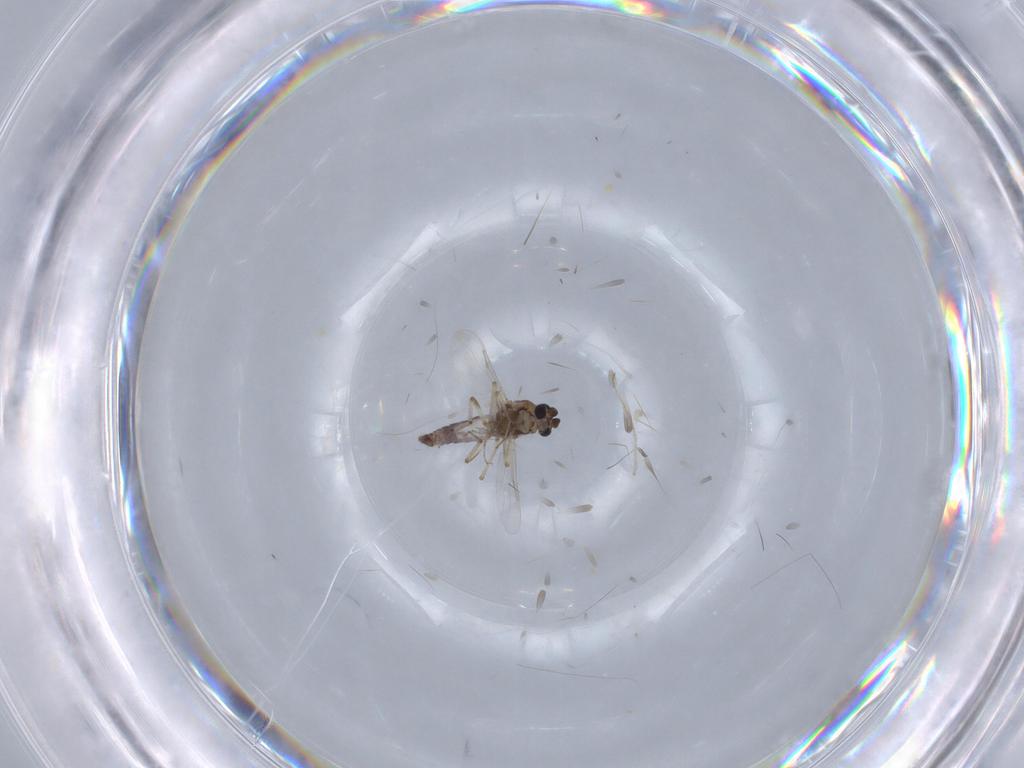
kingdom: Animalia
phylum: Arthropoda
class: Insecta
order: Diptera
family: Ceratopogonidae
